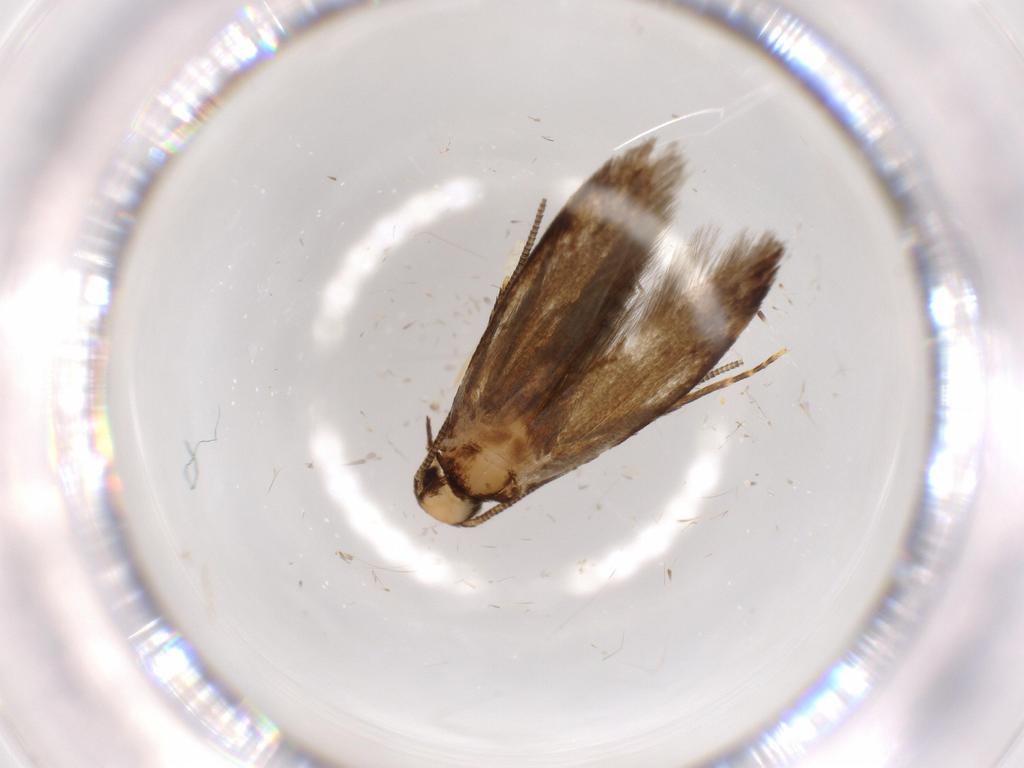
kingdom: Animalia
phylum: Arthropoda
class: Insecta
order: Lepidoptera
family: Tineidae
